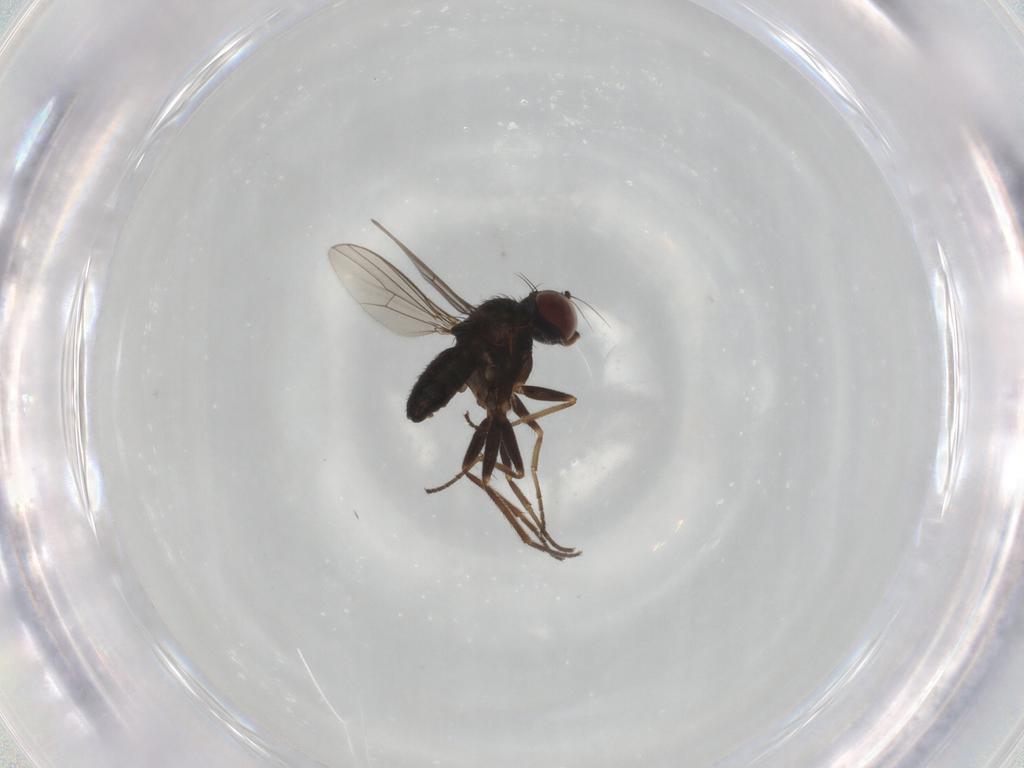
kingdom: Animalia
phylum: Arthropoda
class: Insecta
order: Diptera
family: Dolichopodidae
